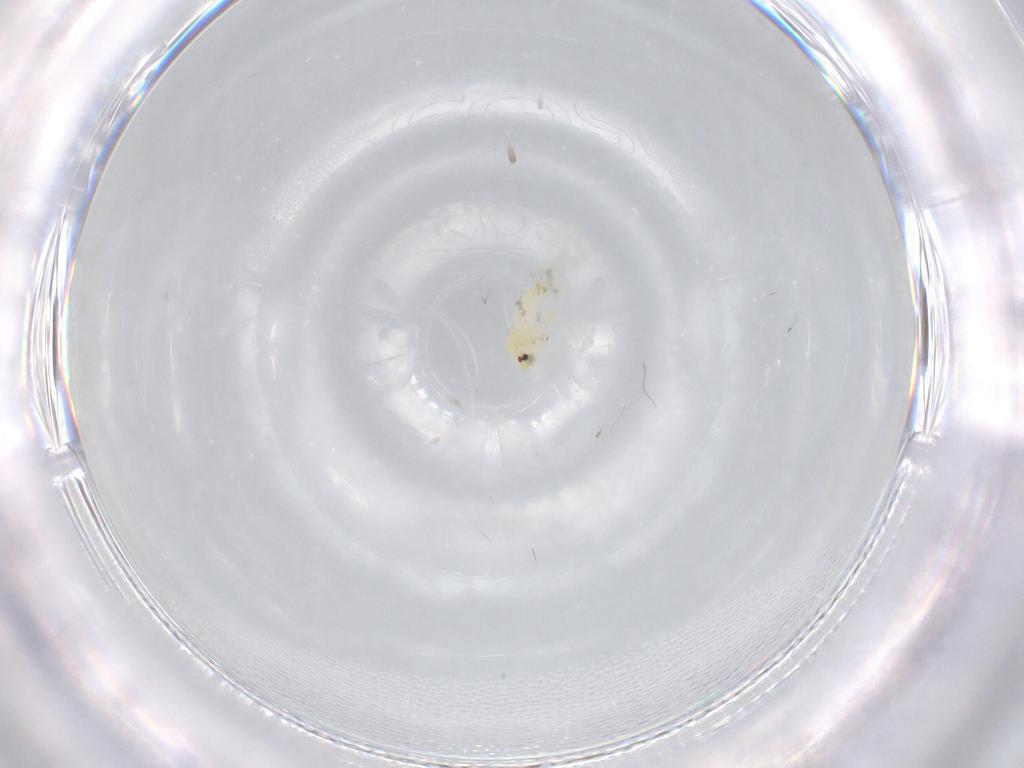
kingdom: Animalia
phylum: Arthropoda
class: Insecta
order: Hemiptera
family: Aleyrodidae
